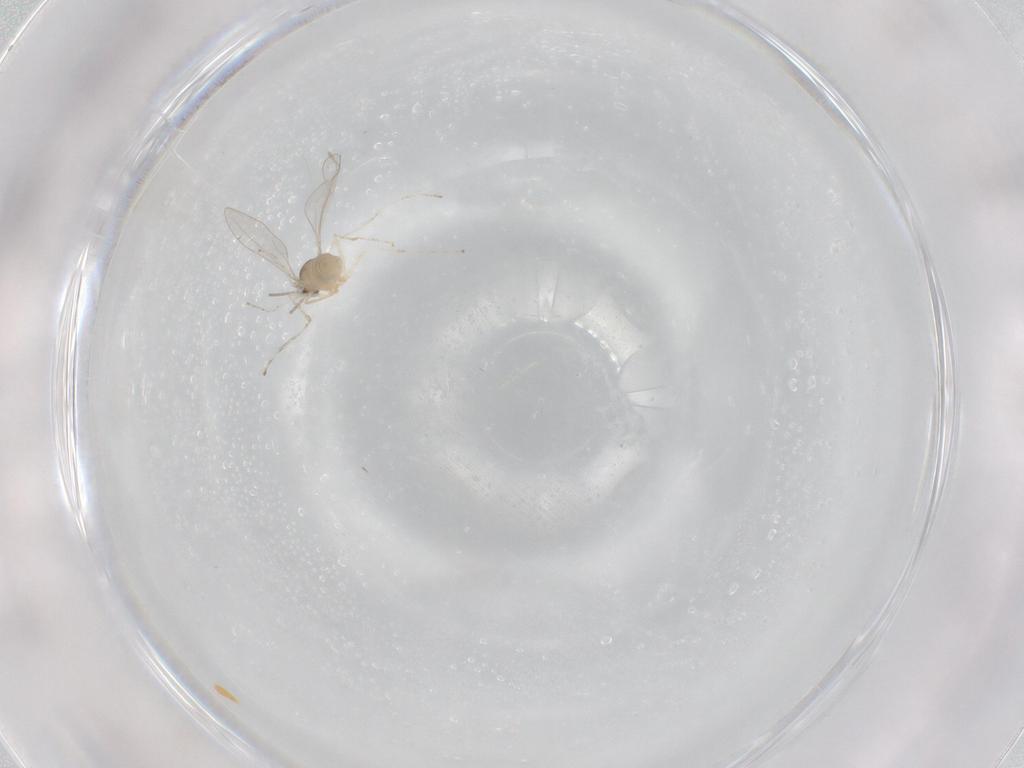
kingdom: Animalia
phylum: Arthropoda
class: Insecta
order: Diptera
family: Cecidomyiidae
